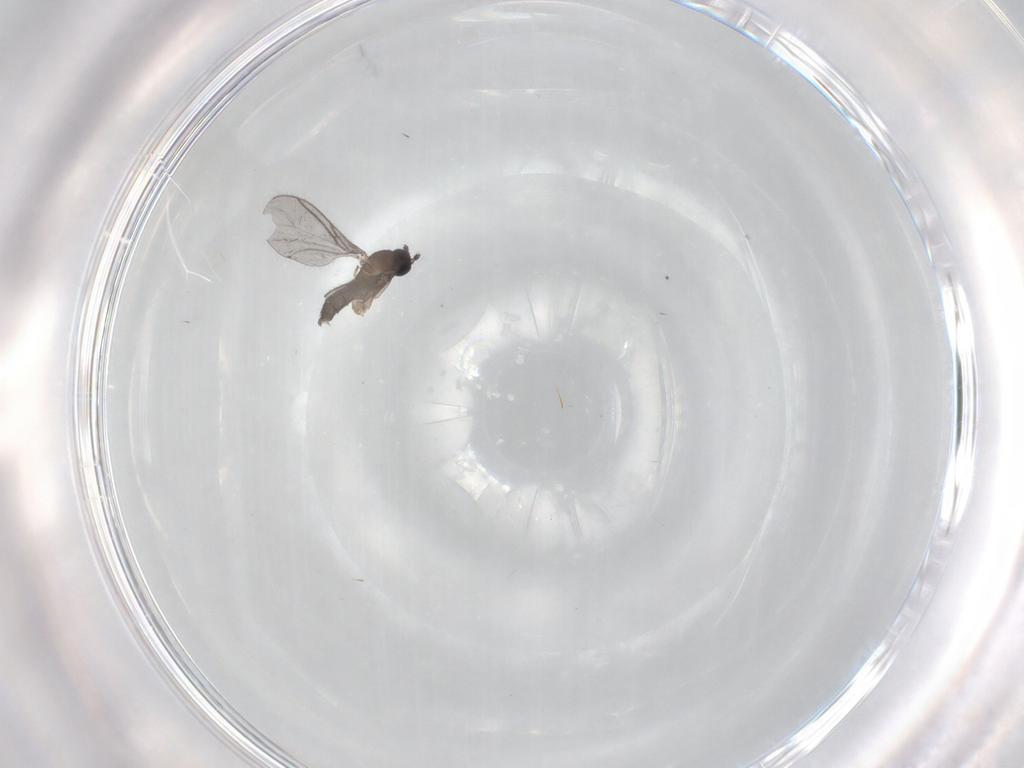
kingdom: Animalia
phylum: Arthropoda
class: Insecta
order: Diptera
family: Sciaridae
